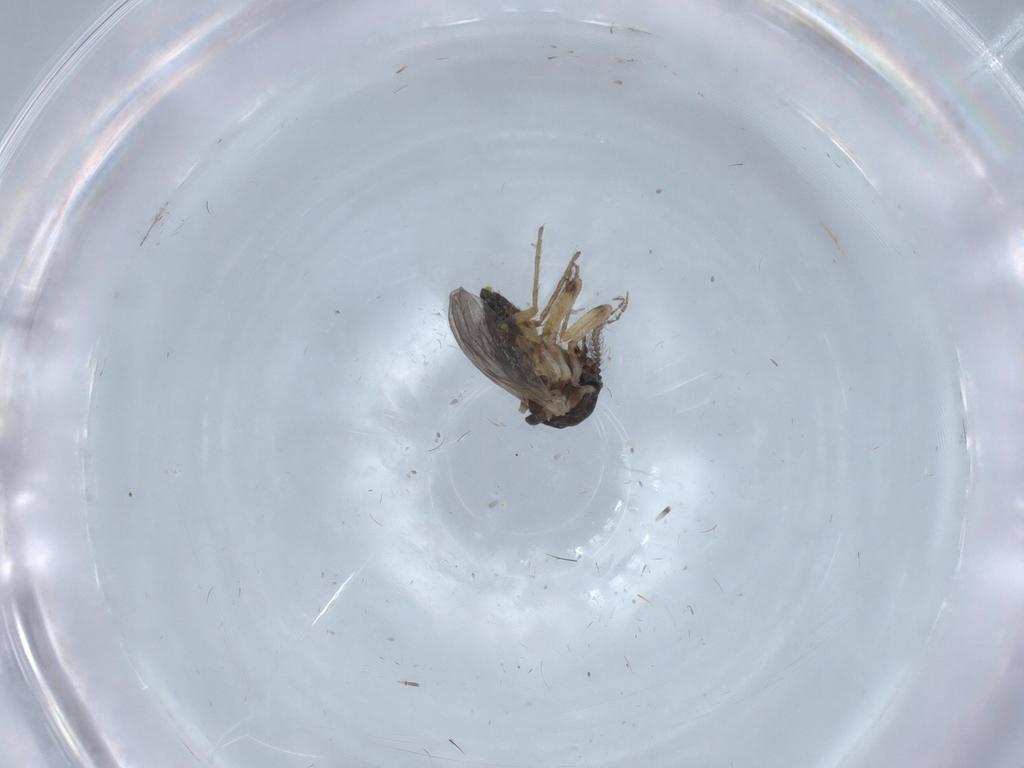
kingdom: Animalia
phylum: Arthropoda
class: Insecta
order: Diptera
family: Ceratopogonidae
